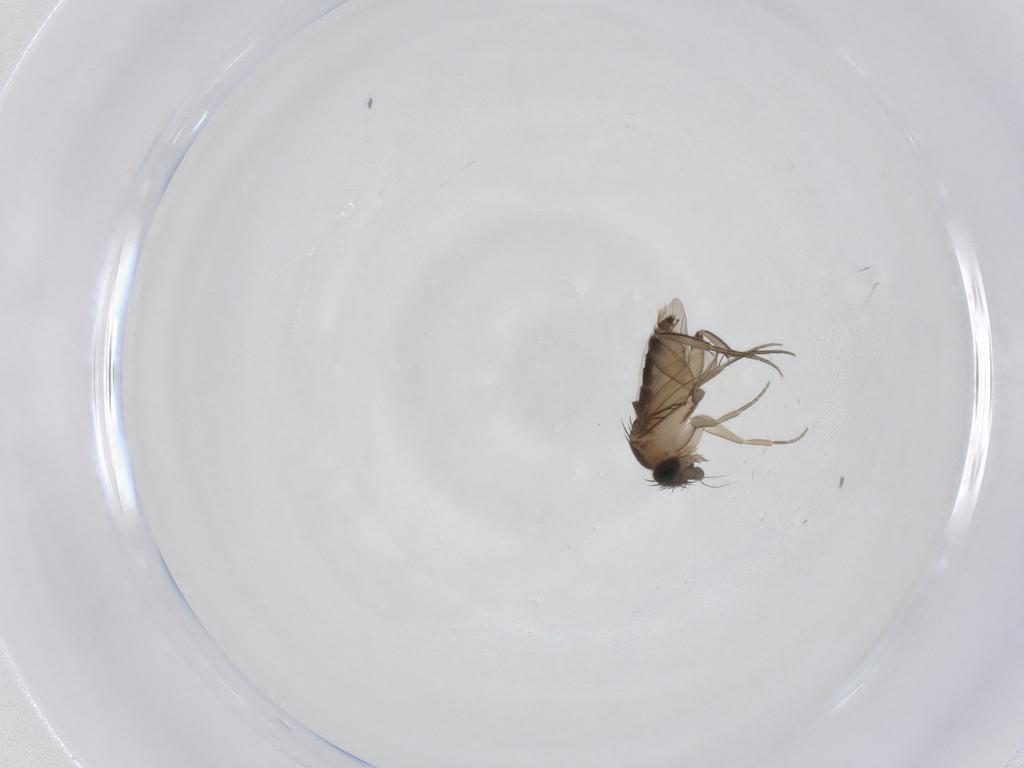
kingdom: Animalia
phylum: Arthropoda
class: Insecta
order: Diptera
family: Phoridae
